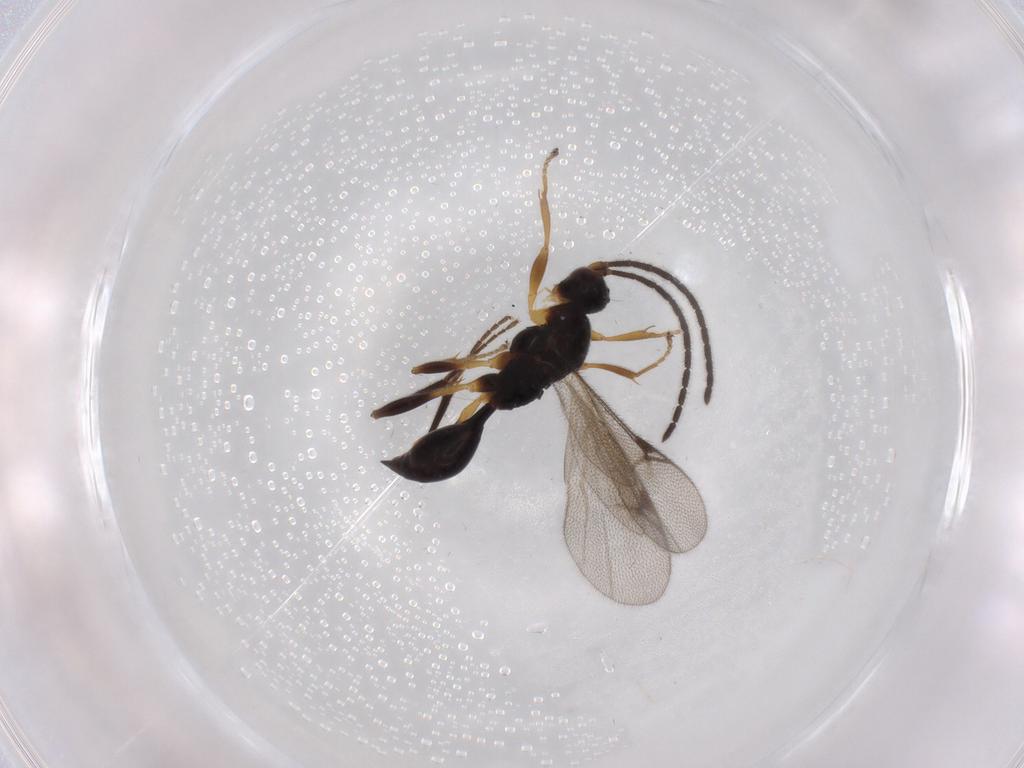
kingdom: Animalia
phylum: Arthropoda
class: Insecta
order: Hymenoptera
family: Proctotrupidae
